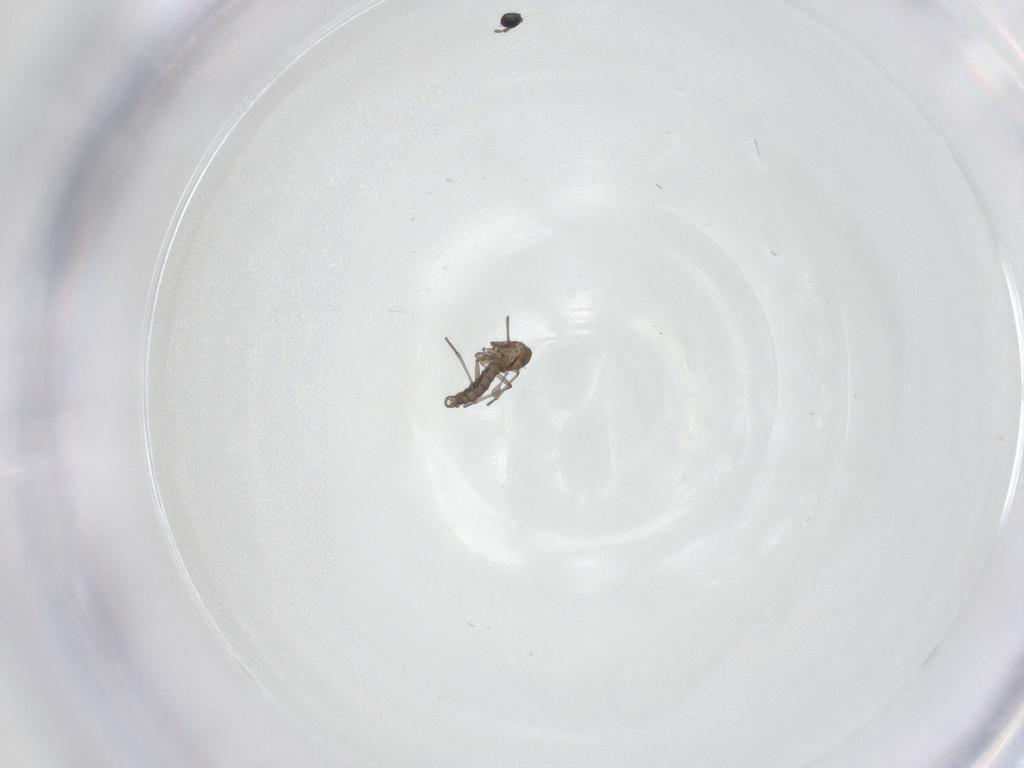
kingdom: Animalia
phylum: Arthropoda
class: Insecta
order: Diptera
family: Sciaridae
